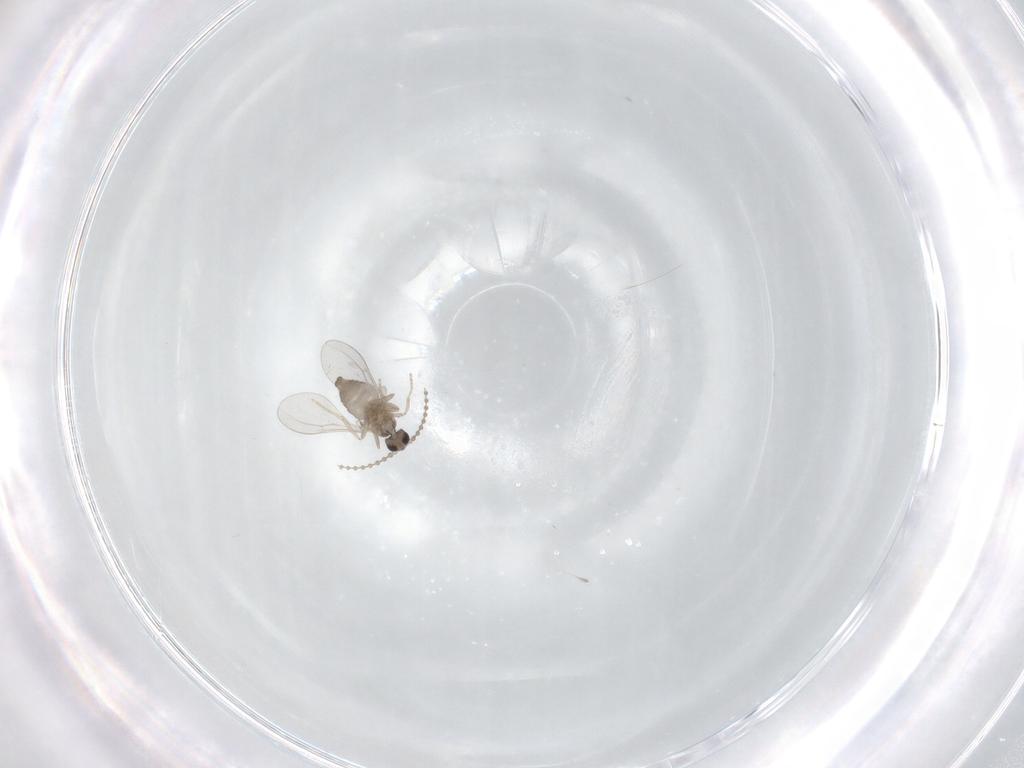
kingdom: Animalia
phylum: Arthropoda
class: Insecta
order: Diptera
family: Cecidomyiidae
